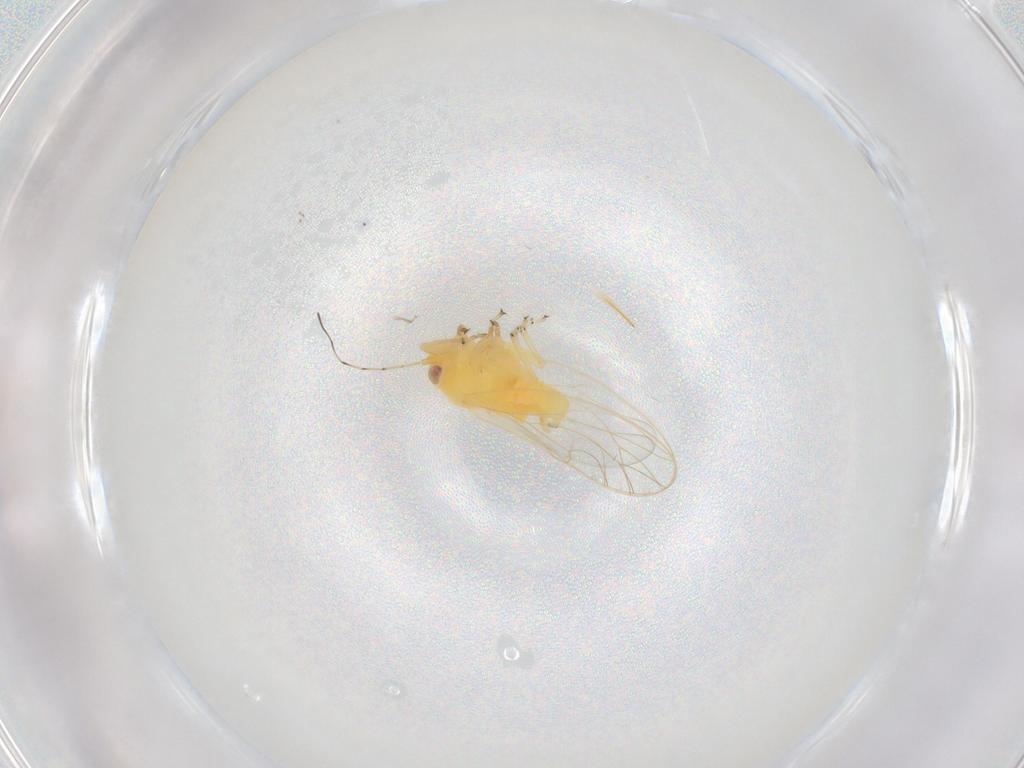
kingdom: Animalia
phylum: Arthropoda
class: Insecta
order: Hemiptera
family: Psyllidae
